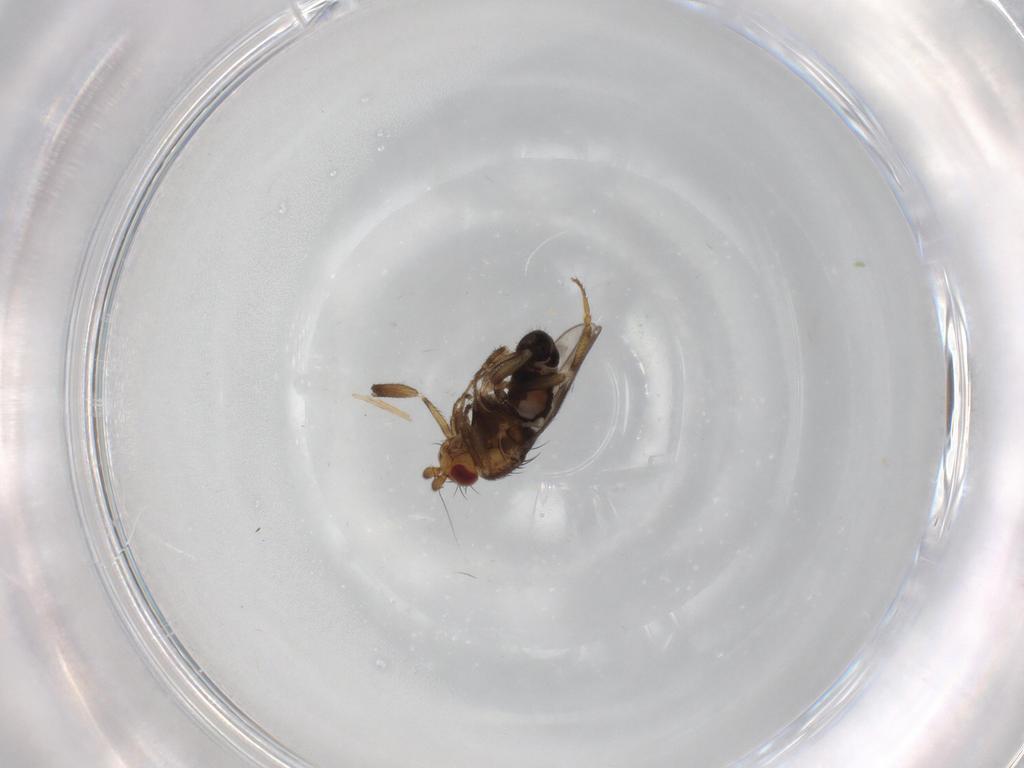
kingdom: Animalia
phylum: Arthropoda
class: Insecta
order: Diptera
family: Sphaeroceridae
